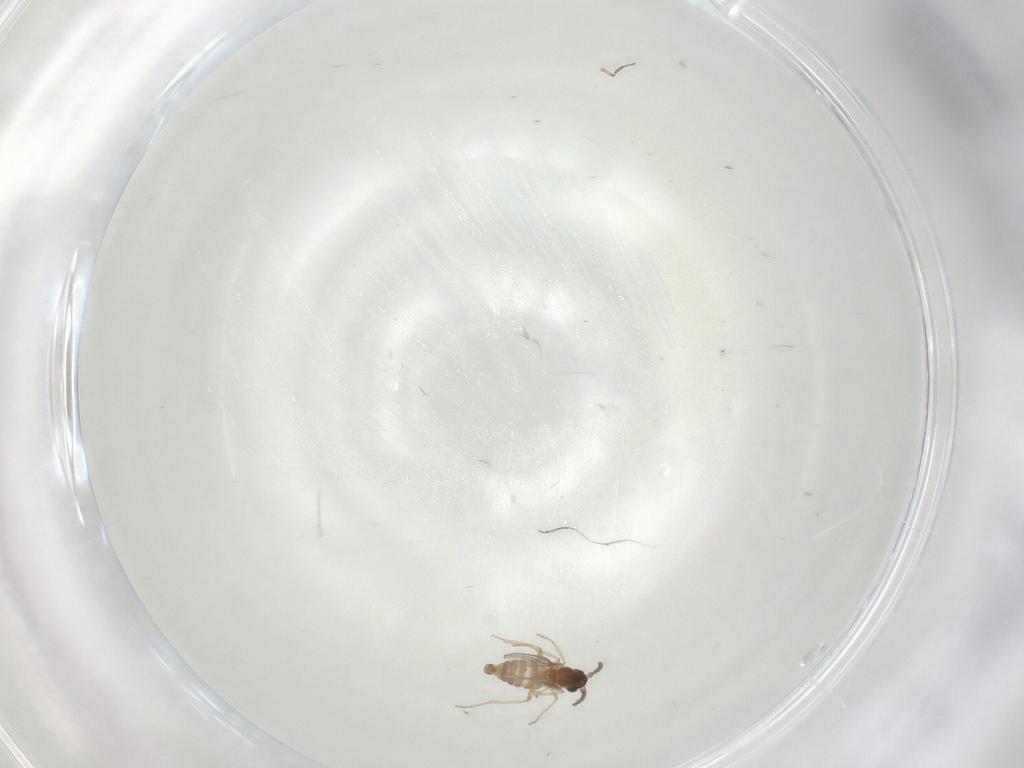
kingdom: Animalia
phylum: Arthropoda
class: Insecta
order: Diptera
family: Cecidomyiidae
